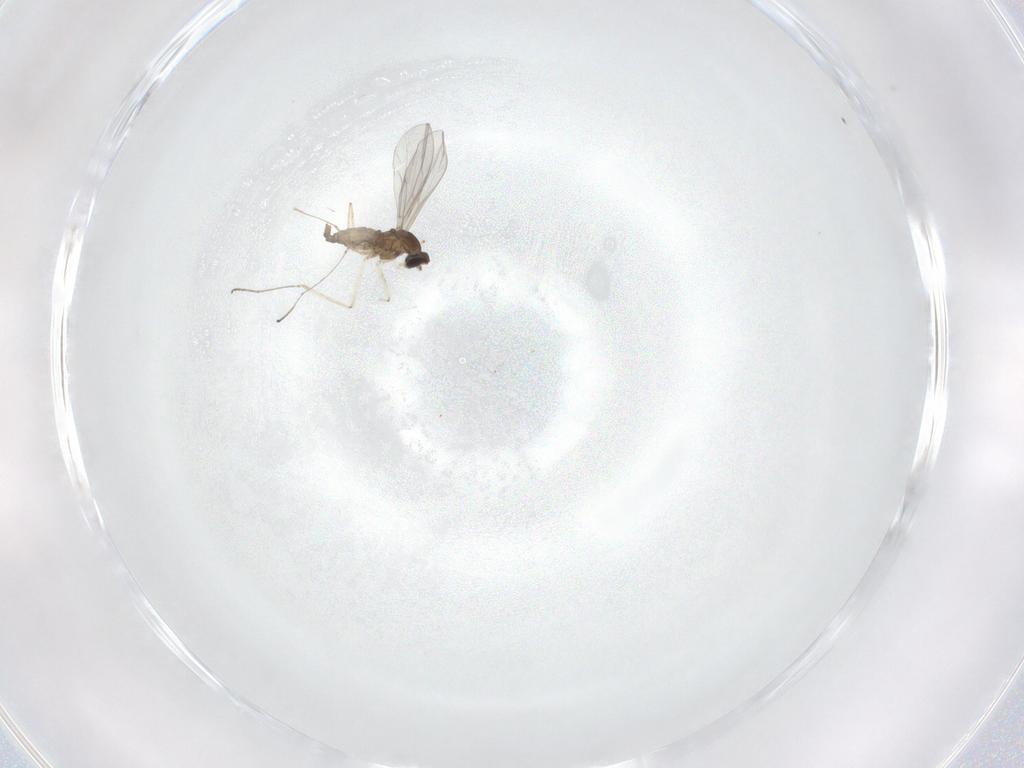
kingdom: Animalia
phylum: Arthropoda
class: Insecta
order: Diptera
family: Cecidomyiidae
